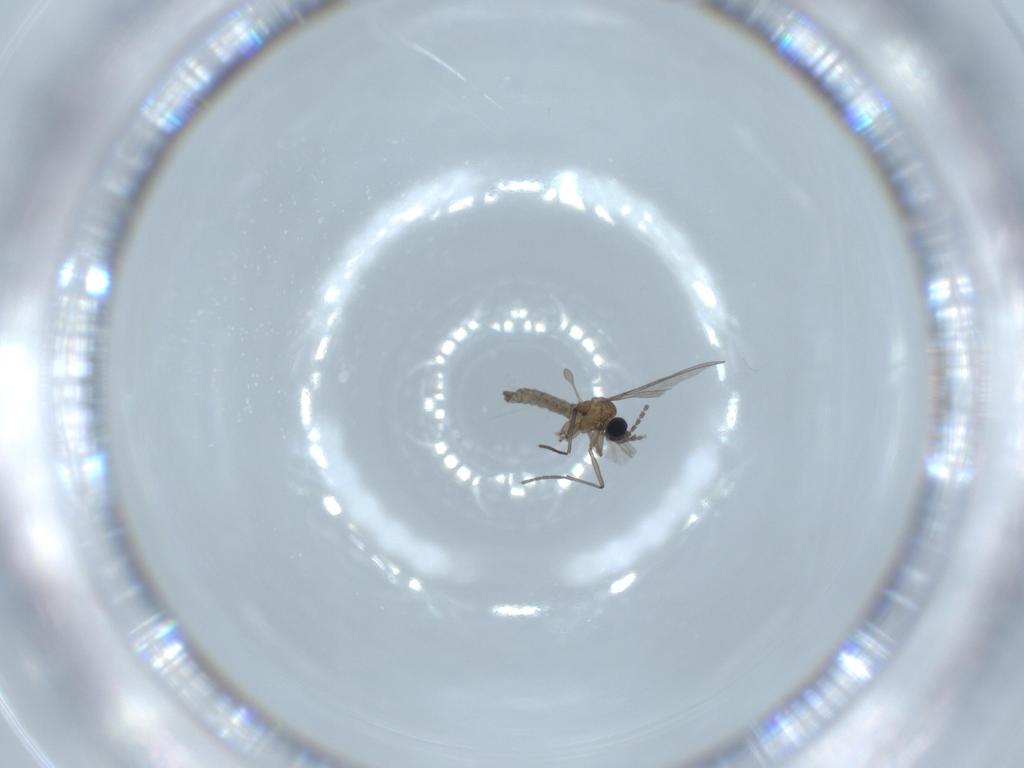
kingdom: Animalia
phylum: Arthropoda
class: Insecta
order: Diptera
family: Sciaridae
